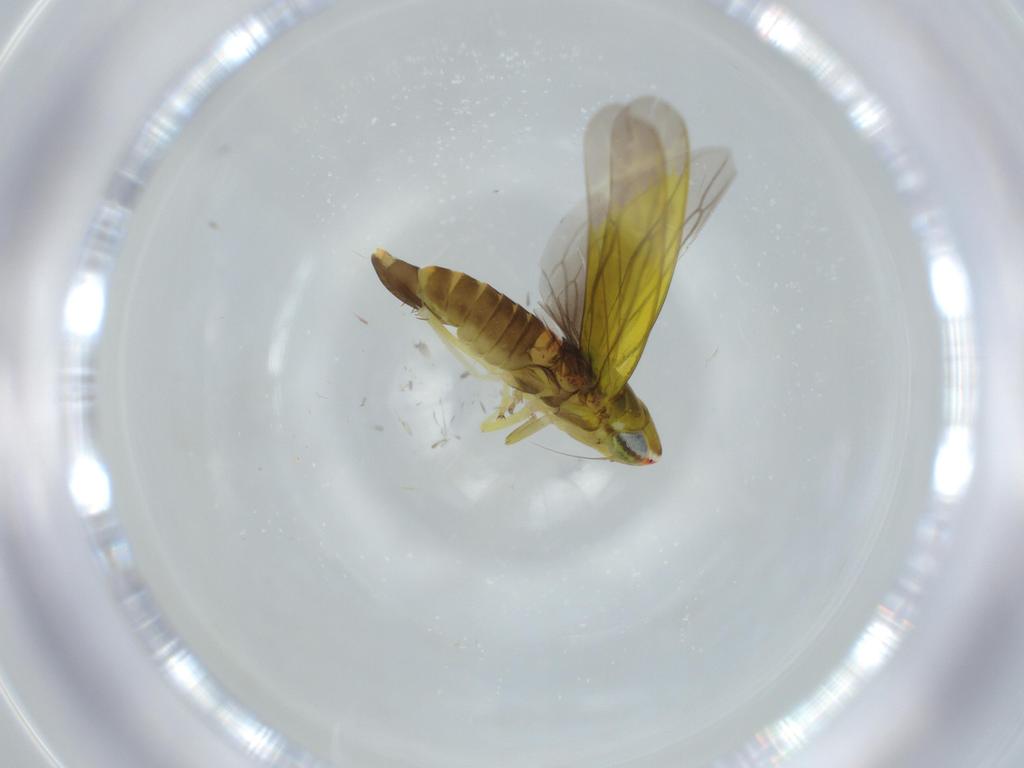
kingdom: Animalia
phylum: Arthropoda
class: Insecta
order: Hemiptera
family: Cicadellidae
